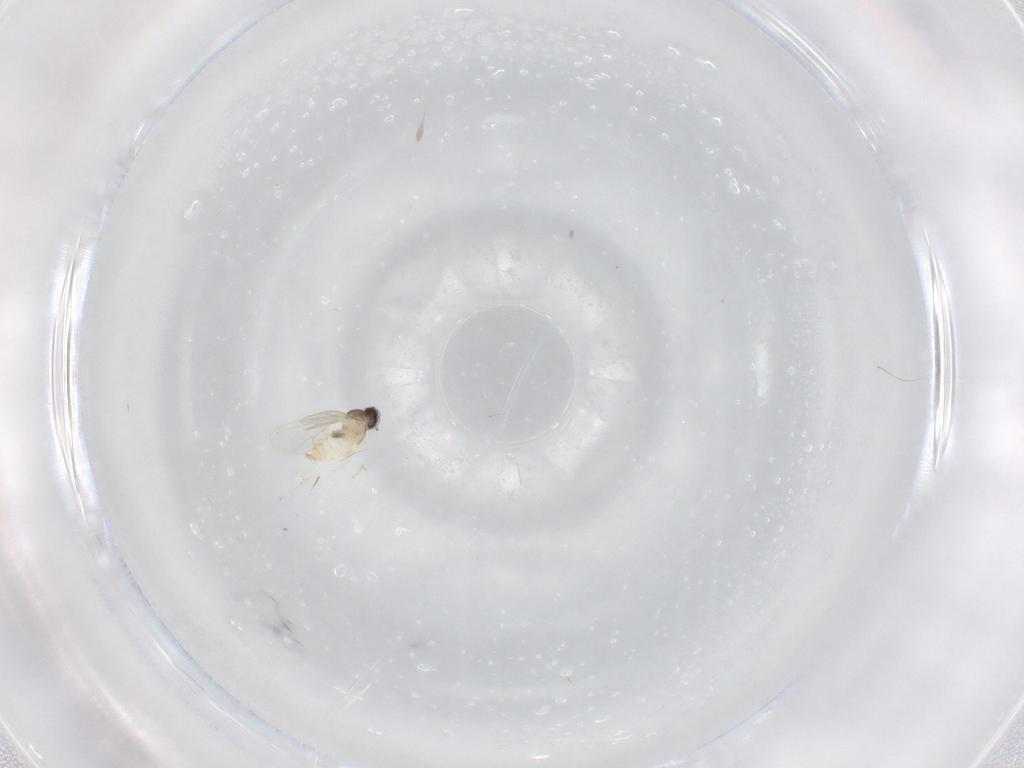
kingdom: Animalia
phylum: Arthropoda
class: Insecta
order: Diptera
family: Cecidomyiidae
